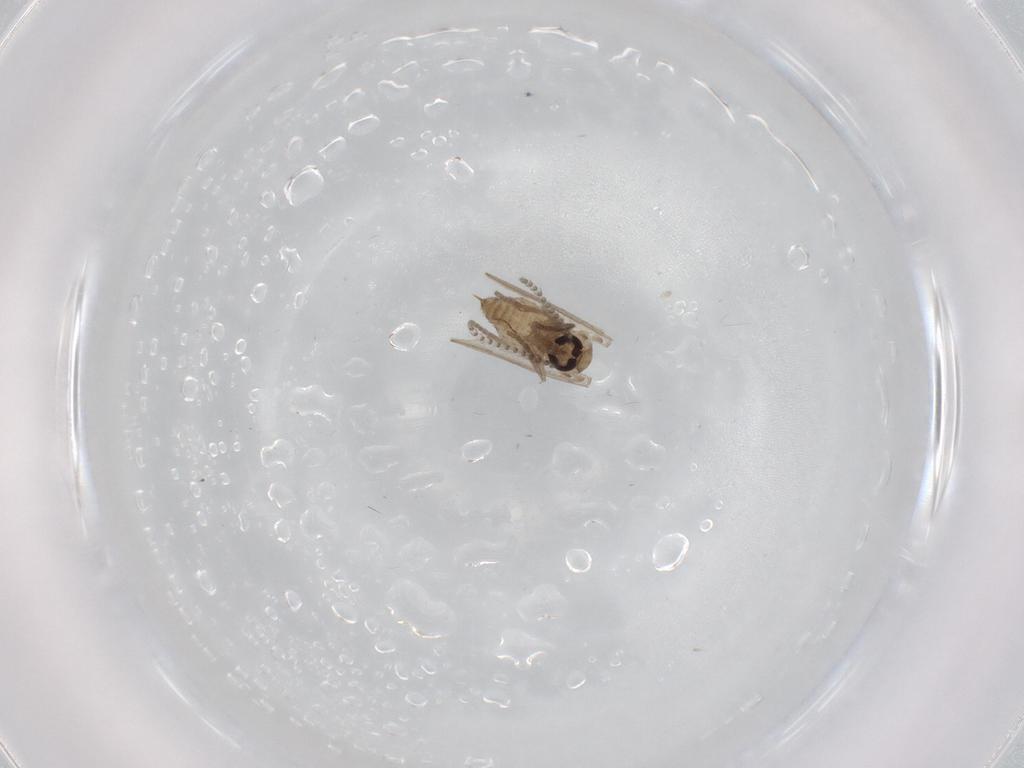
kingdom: Animalia
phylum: Arthropoda
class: Insecta
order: Diptera
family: Psychodidae
